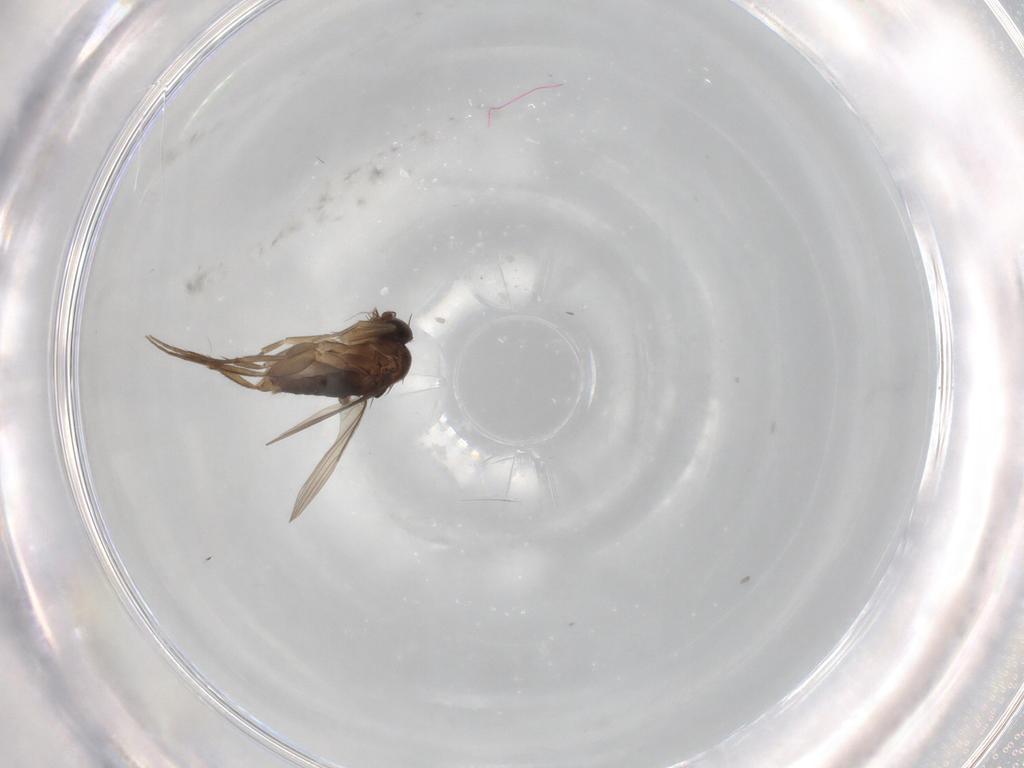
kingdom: Animalia
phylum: Arthropoda
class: Insecta
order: Diptera
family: Phoridae
